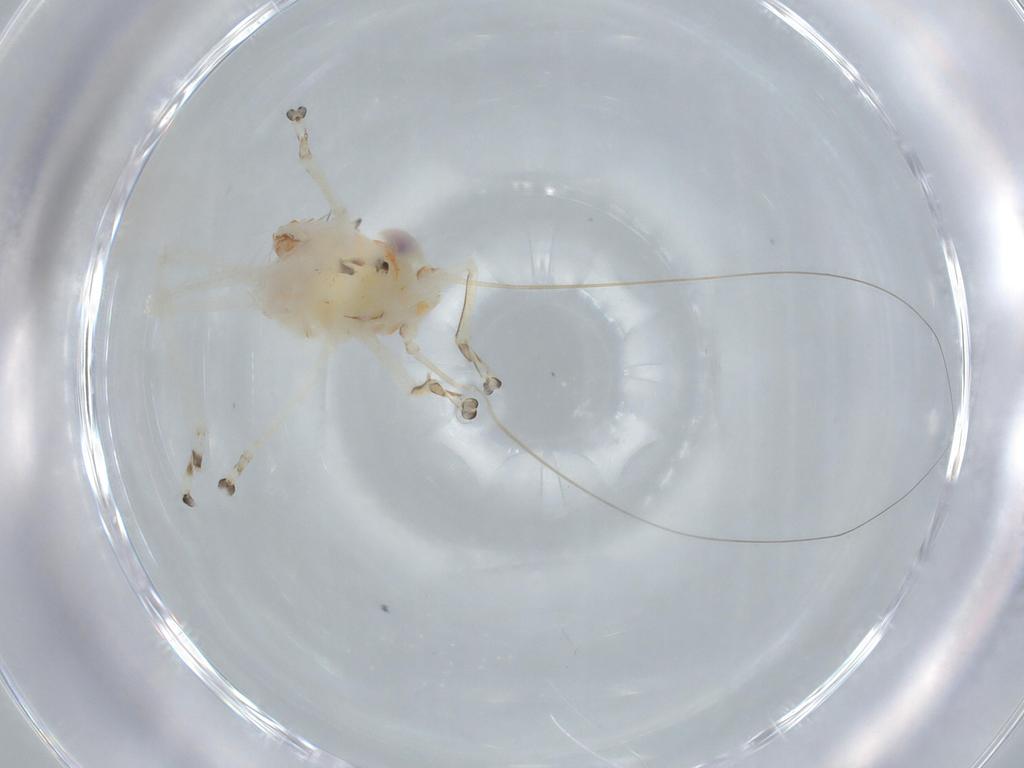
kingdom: Animalia
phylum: Arthropoda
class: Insecta
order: Hemiptera
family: Cicadellidae
